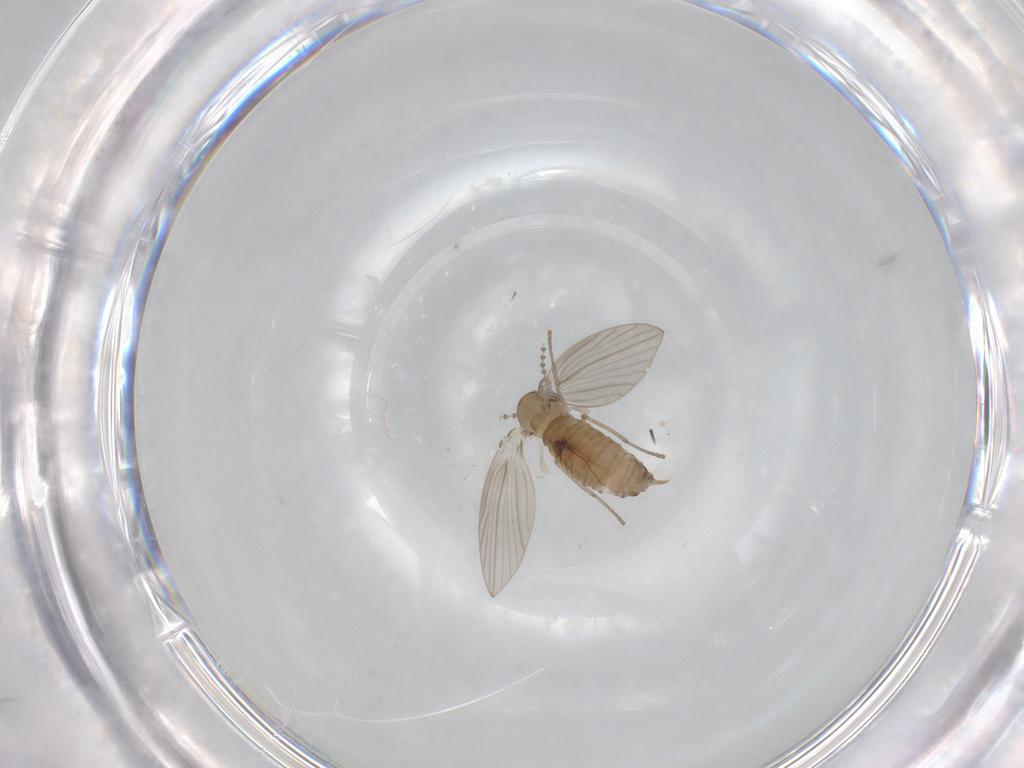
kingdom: Animalia
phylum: Arthropoda
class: Insecta
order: Diptera
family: Psychodidae
